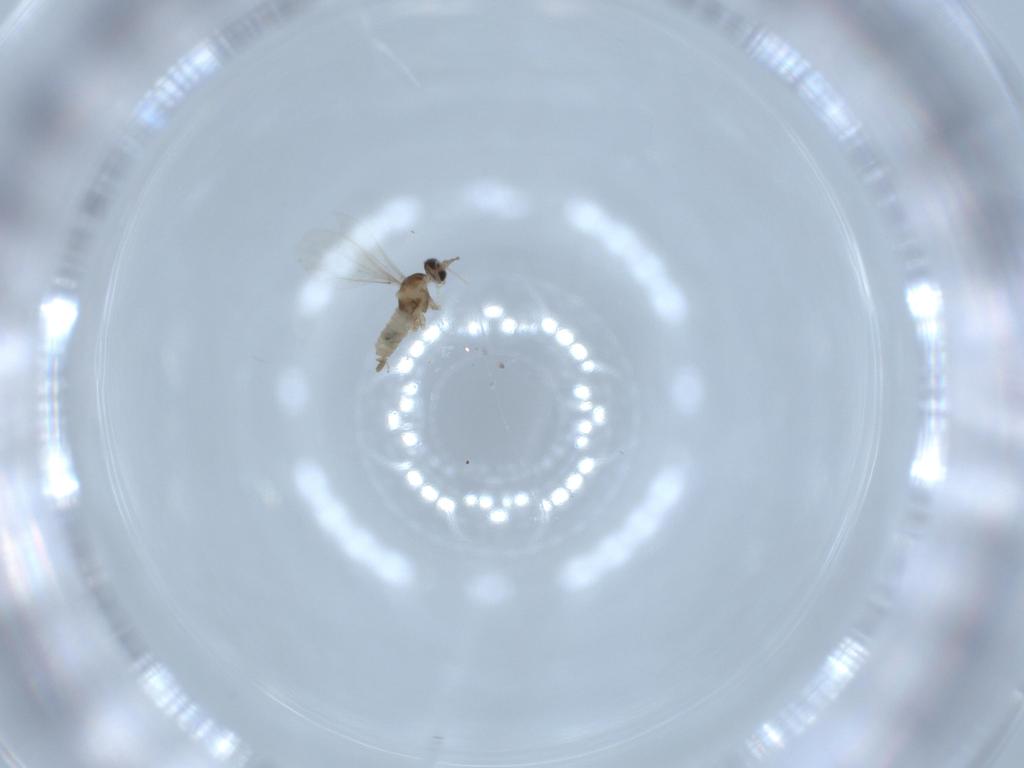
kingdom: Animalia
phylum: Arthropoda
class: Insecta
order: Diptera
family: Cecidomyiidae
